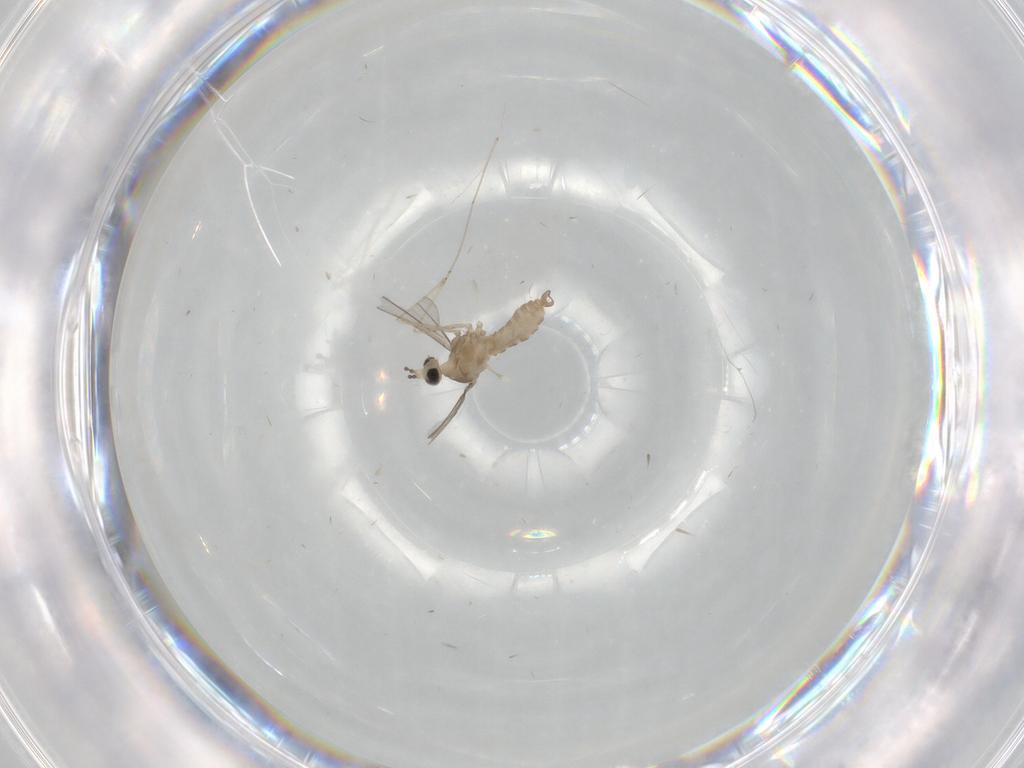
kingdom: Animalia
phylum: Arthropoda
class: Insecta
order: Diptera
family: Cecidomyiidae
